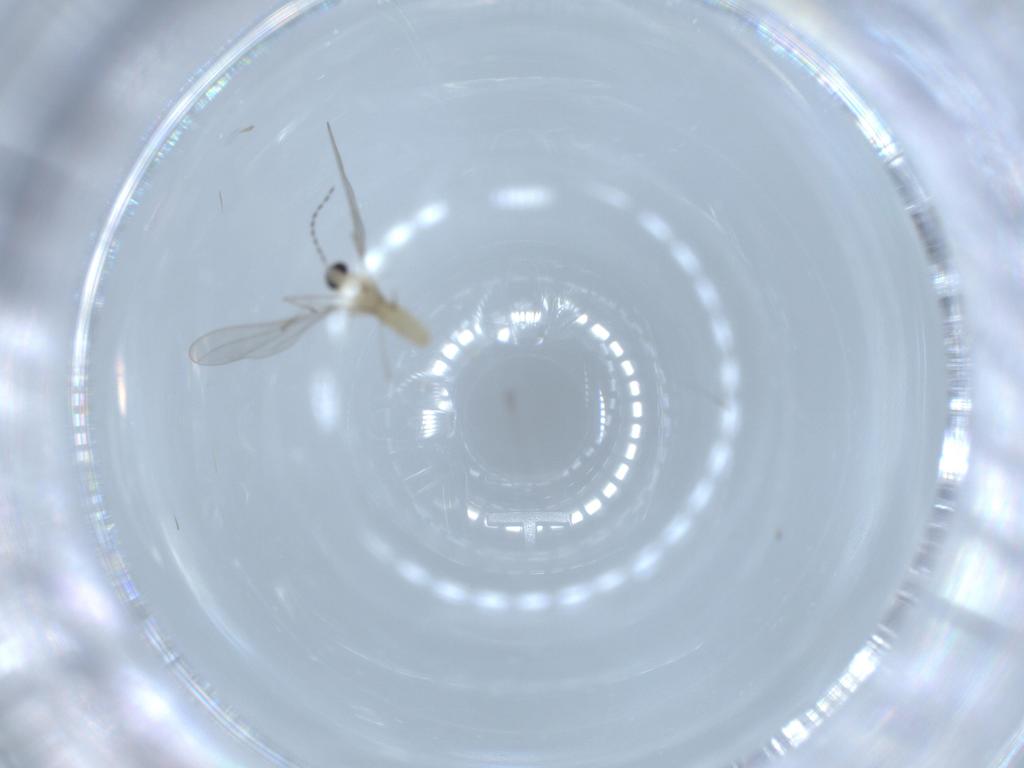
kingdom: Animalia
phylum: Arthropoda
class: Insecta
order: Diptera
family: Cecidomyiidae
